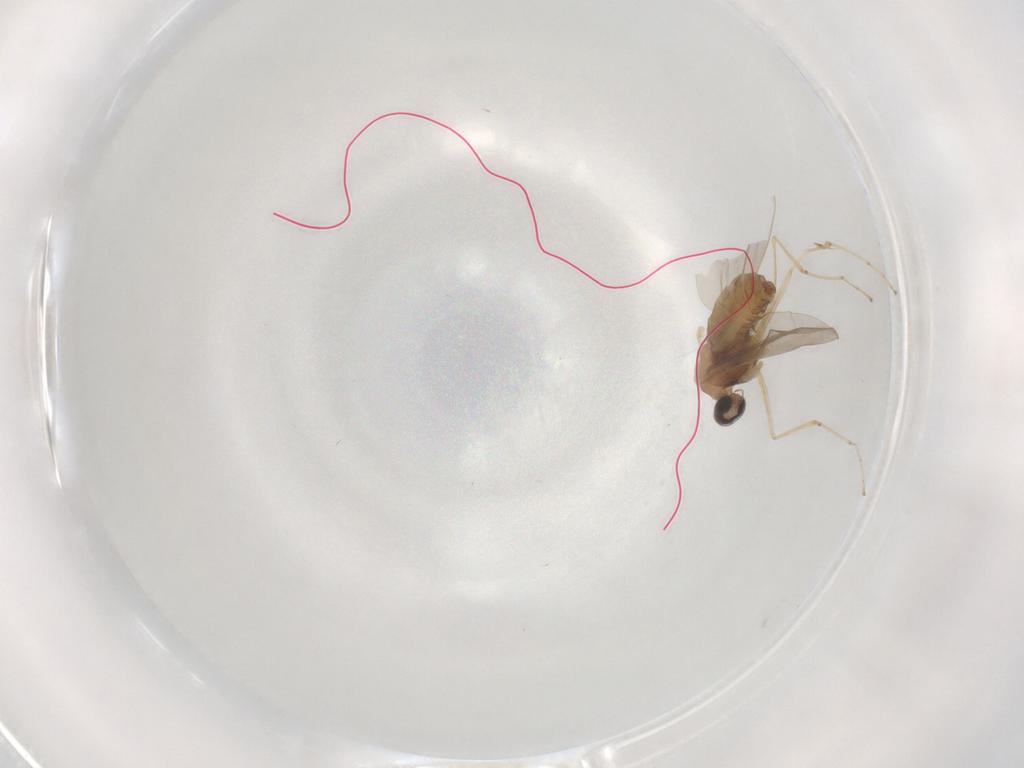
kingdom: Animalia
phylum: Arthropoda
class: Insecta
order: Diptera
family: Cecidomyiidae
